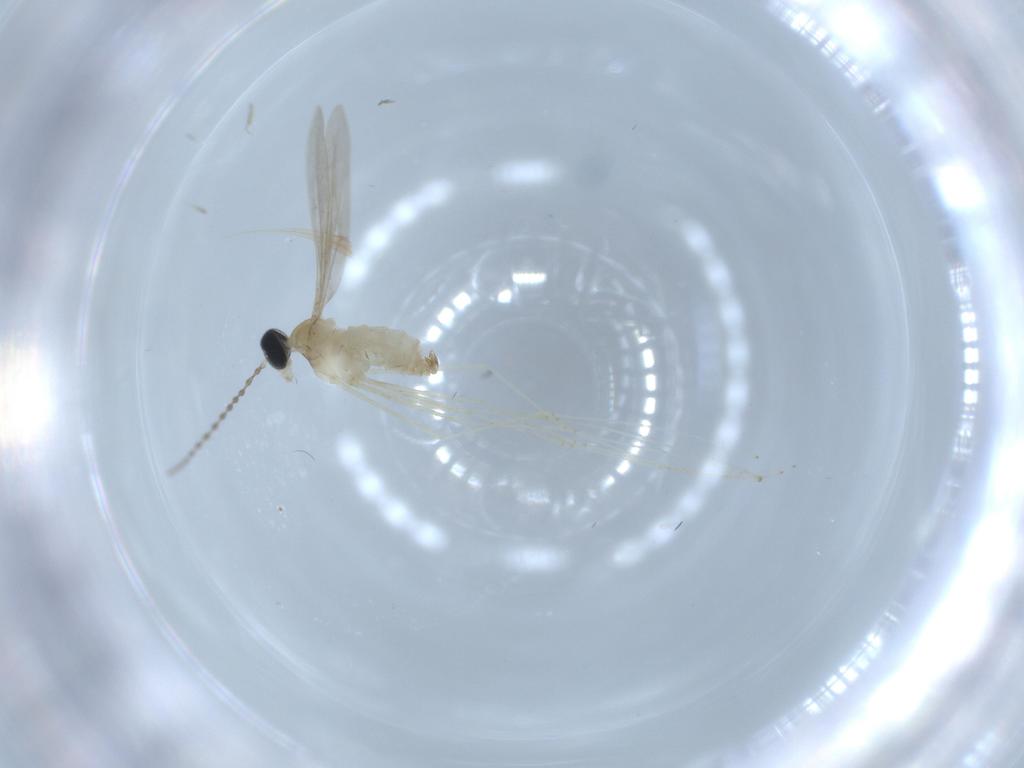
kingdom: Animalia
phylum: Arthropoda
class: Insecta
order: Diptera
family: Cecidomyiidae
